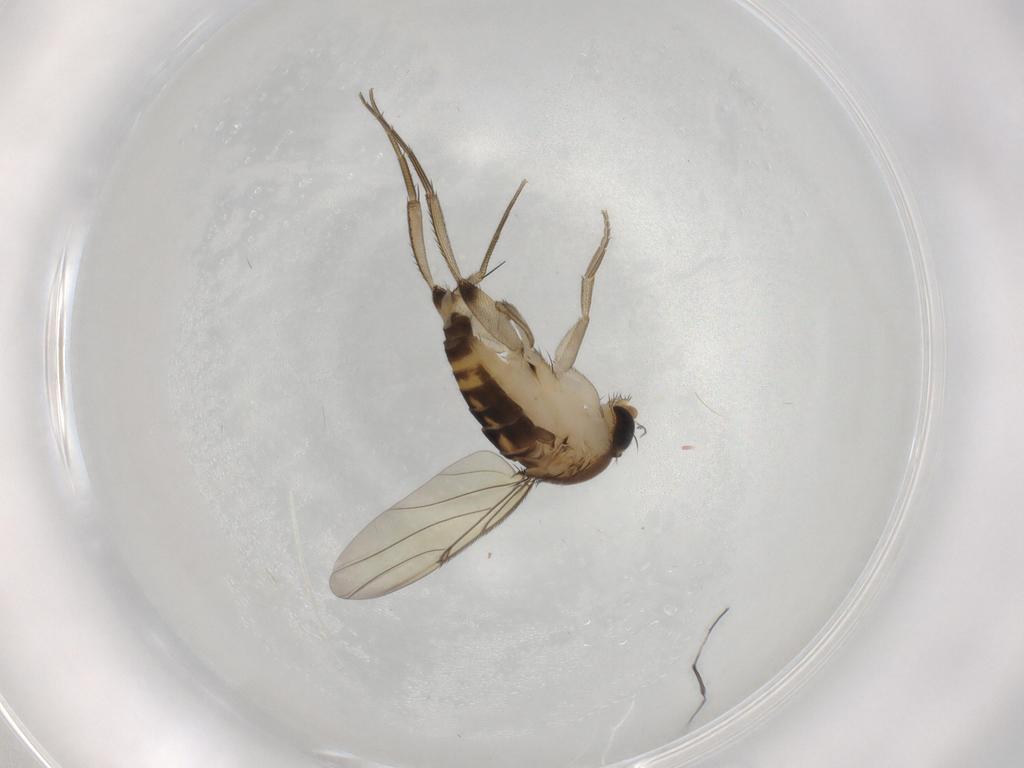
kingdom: Animalia
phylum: Arthropoda
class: Insecta
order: Diptera
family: Phoridae
